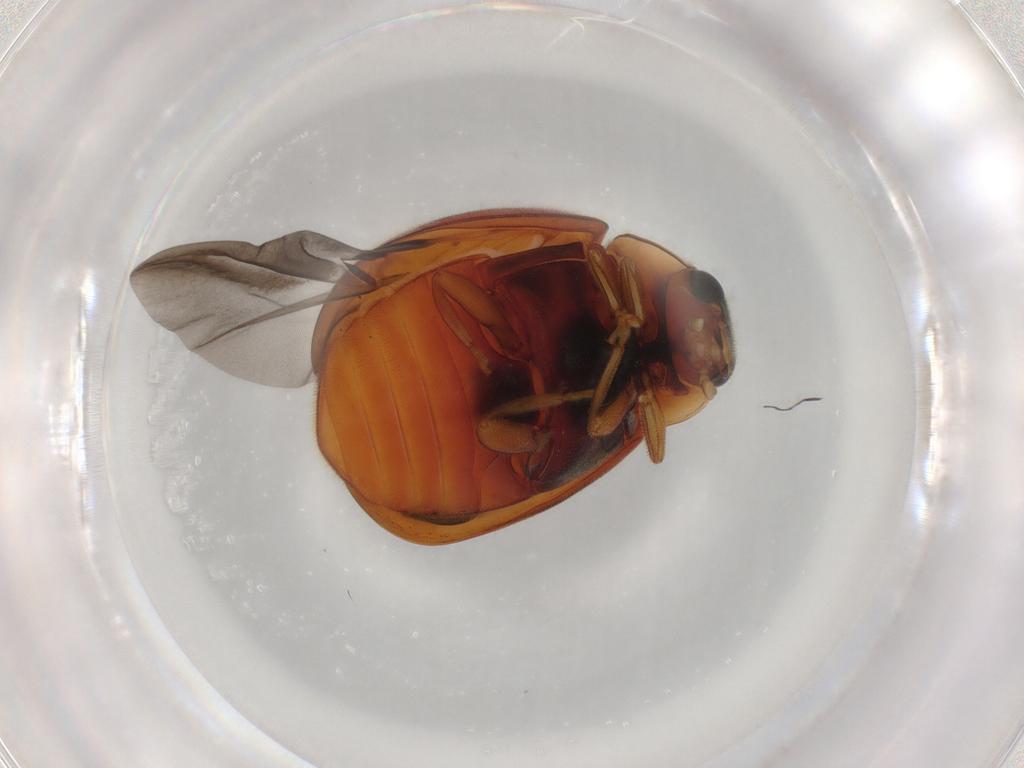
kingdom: Animalia
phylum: Arthropoda
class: Insecta
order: Coleoptera
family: Coccinellidae
